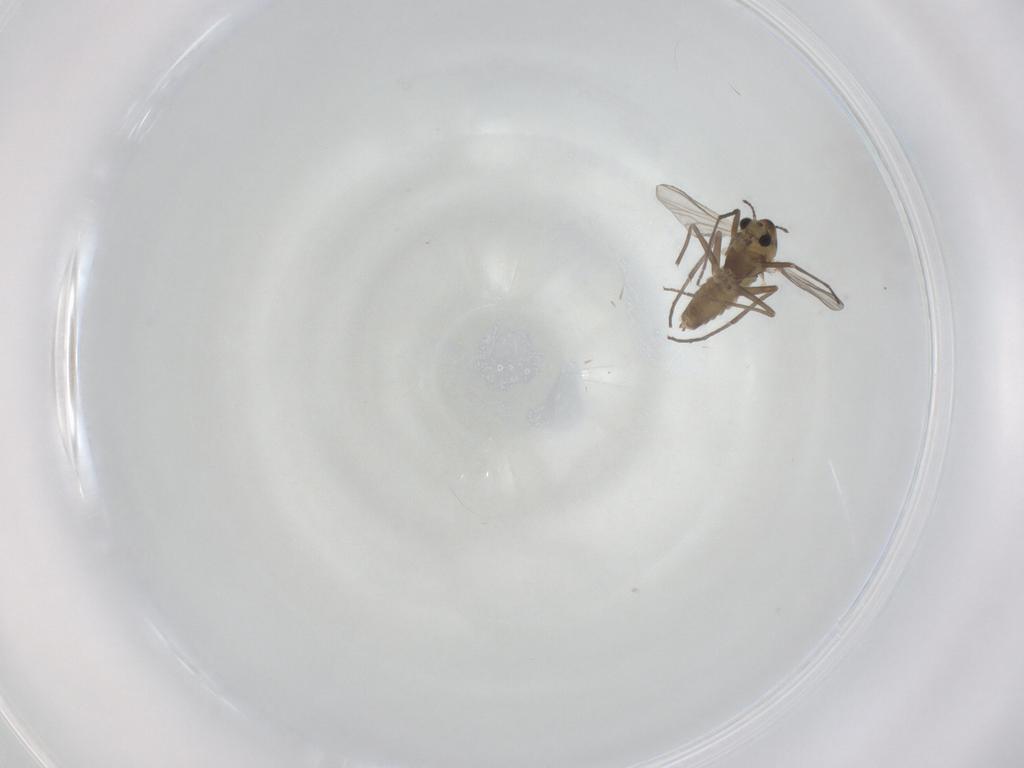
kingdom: Animalia
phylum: Arthropoda
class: Insecta
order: Diptera
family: Chironomidae
